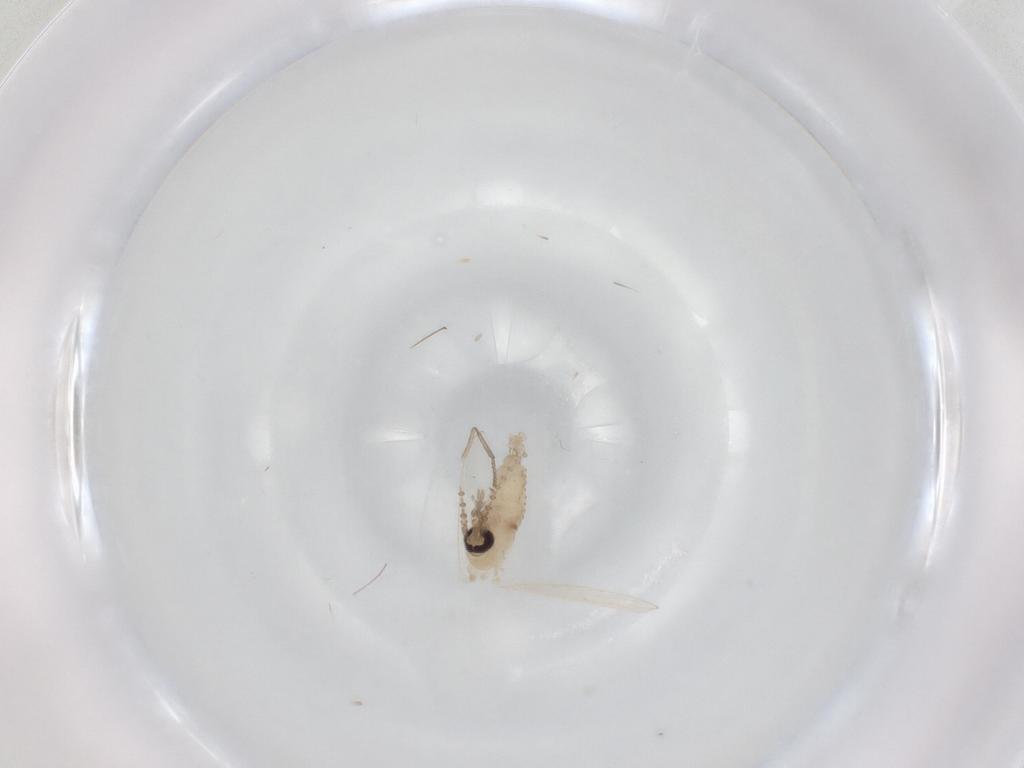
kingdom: Animalia
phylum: Arthropoda
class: Insecta
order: Diptera
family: Psychodidae
